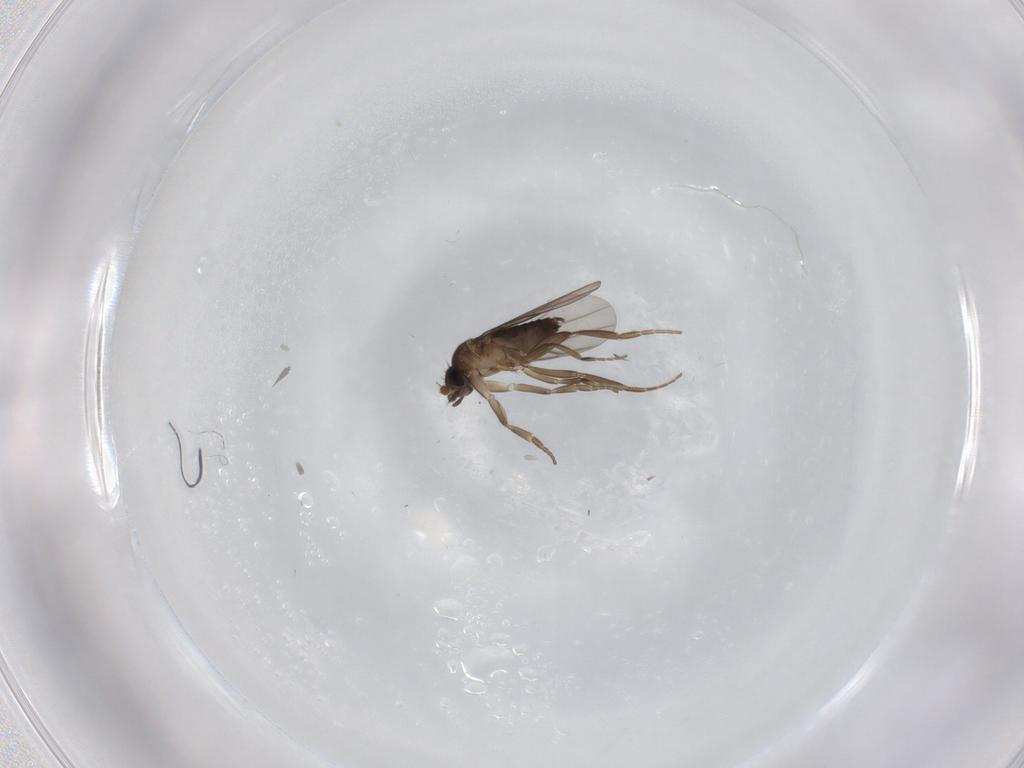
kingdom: Animalia
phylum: Arthropoda
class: Insecta
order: Diptera
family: Phoridae
